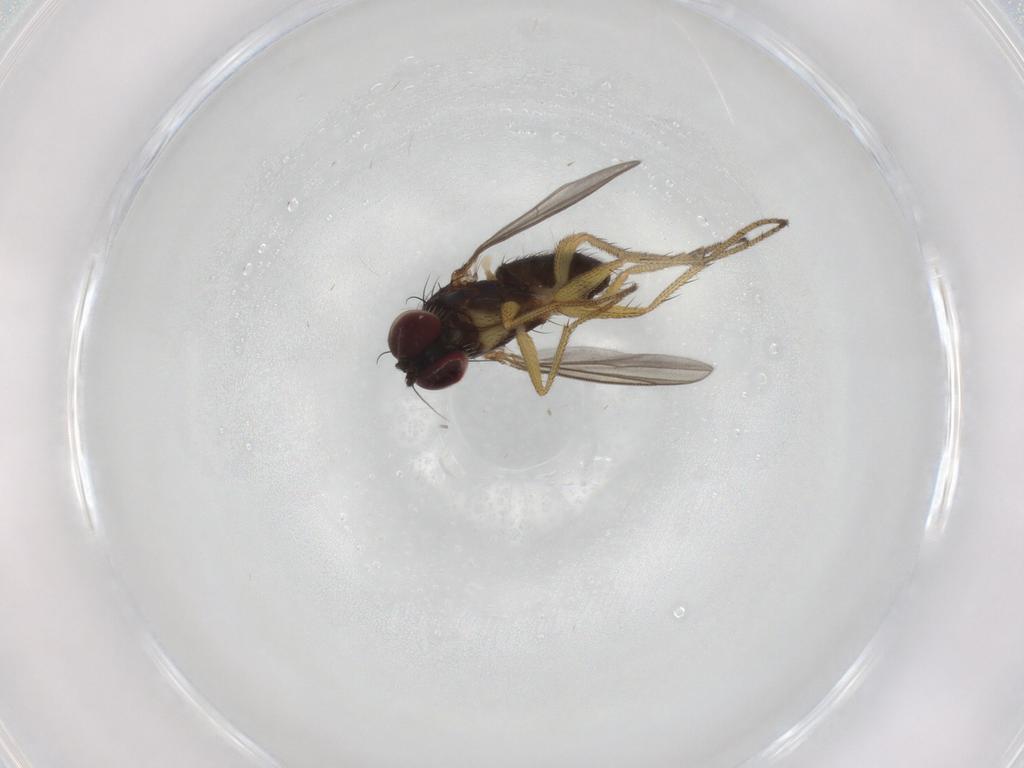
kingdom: Animalia
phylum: Arthropoda
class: Insecta
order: Diptera
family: Dolichopodidae
